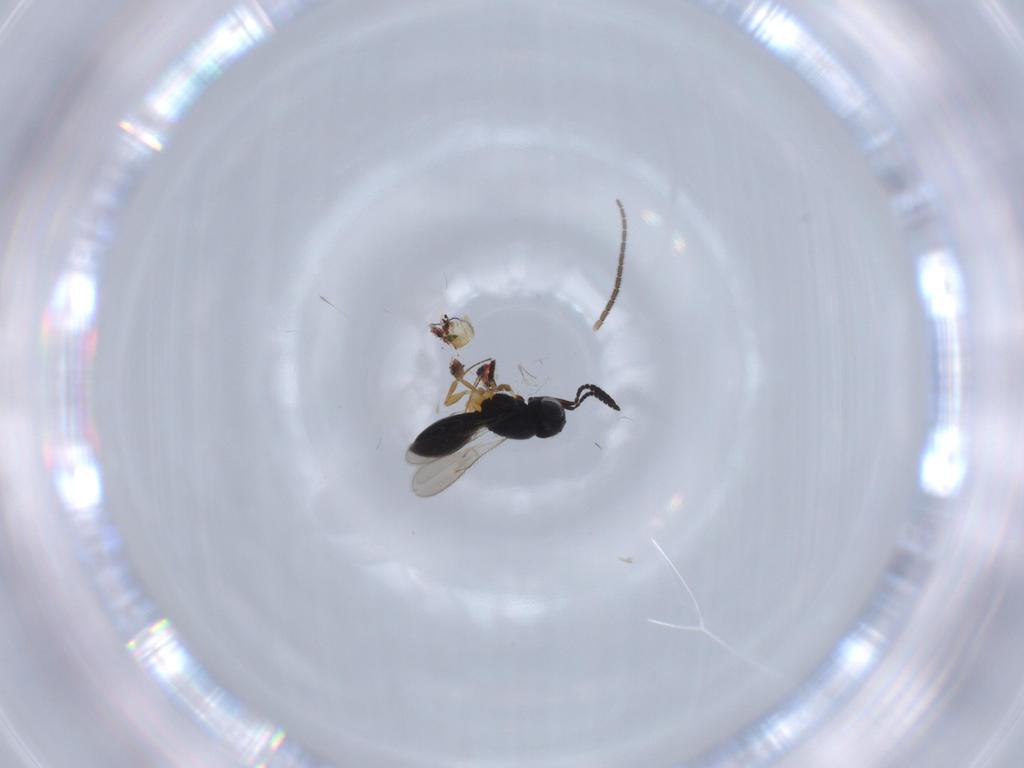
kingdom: Animalia
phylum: Arthropoda
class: Insecta
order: Hymenoptera
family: Scelionidae
